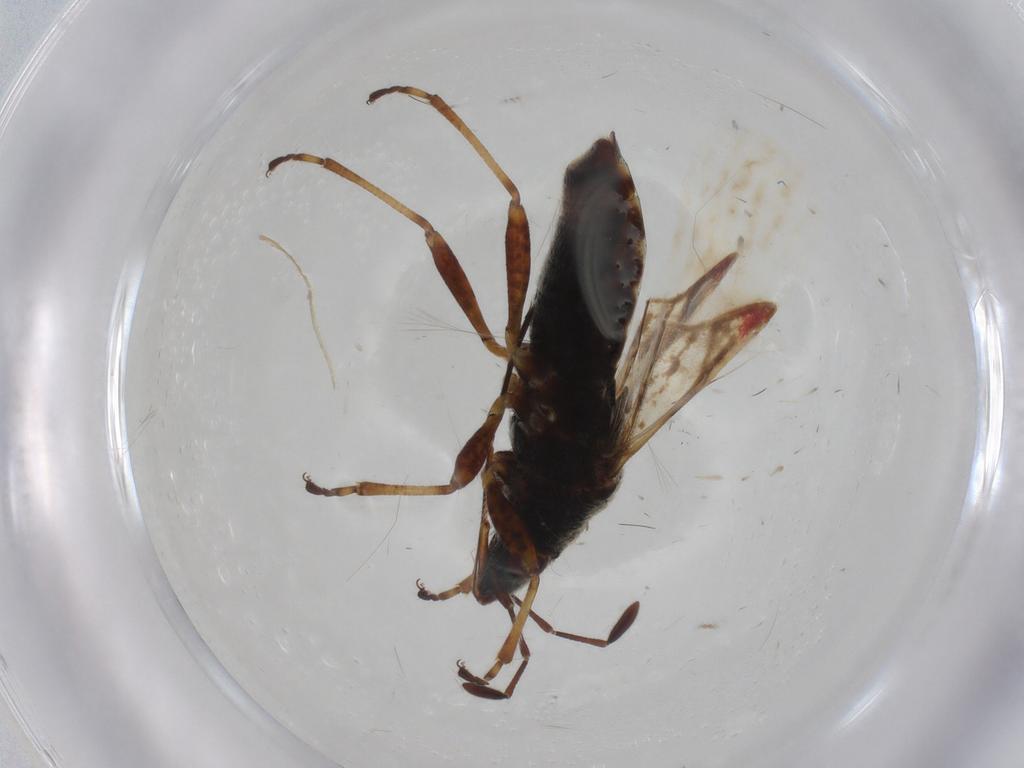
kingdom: Animalia
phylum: Arthropoda
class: Insecta
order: Hemiptera
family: Lygaeidae
